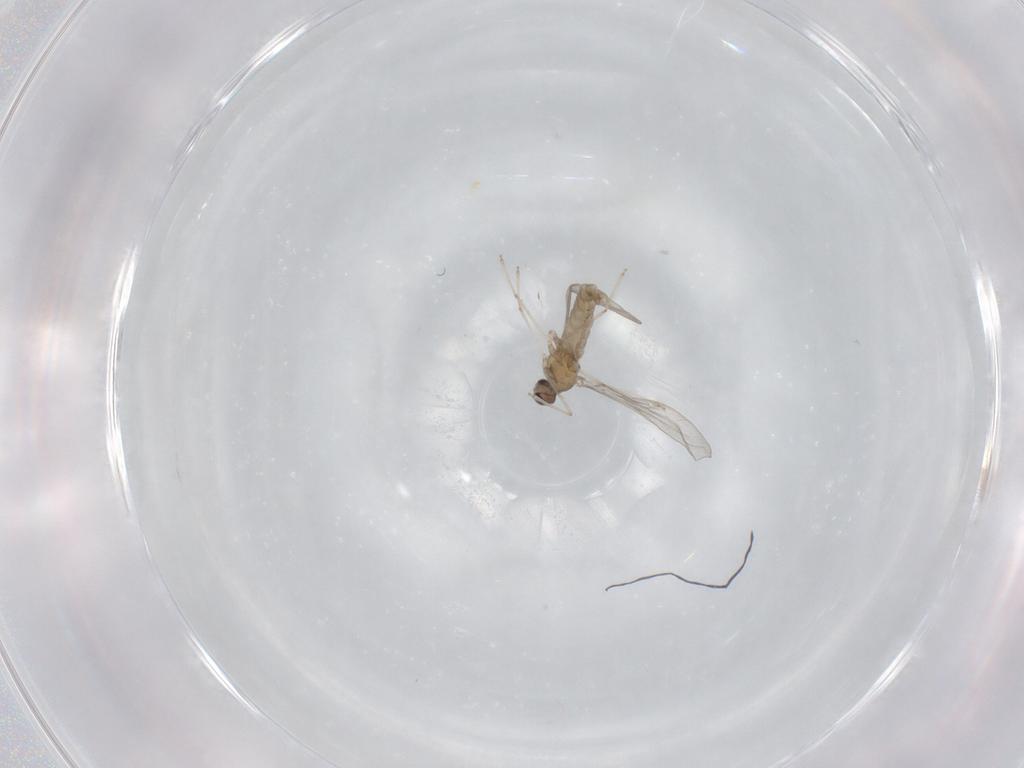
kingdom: Animalia
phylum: Arthropoda
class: Insecta
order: Diptera
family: Cecidomyiidae
